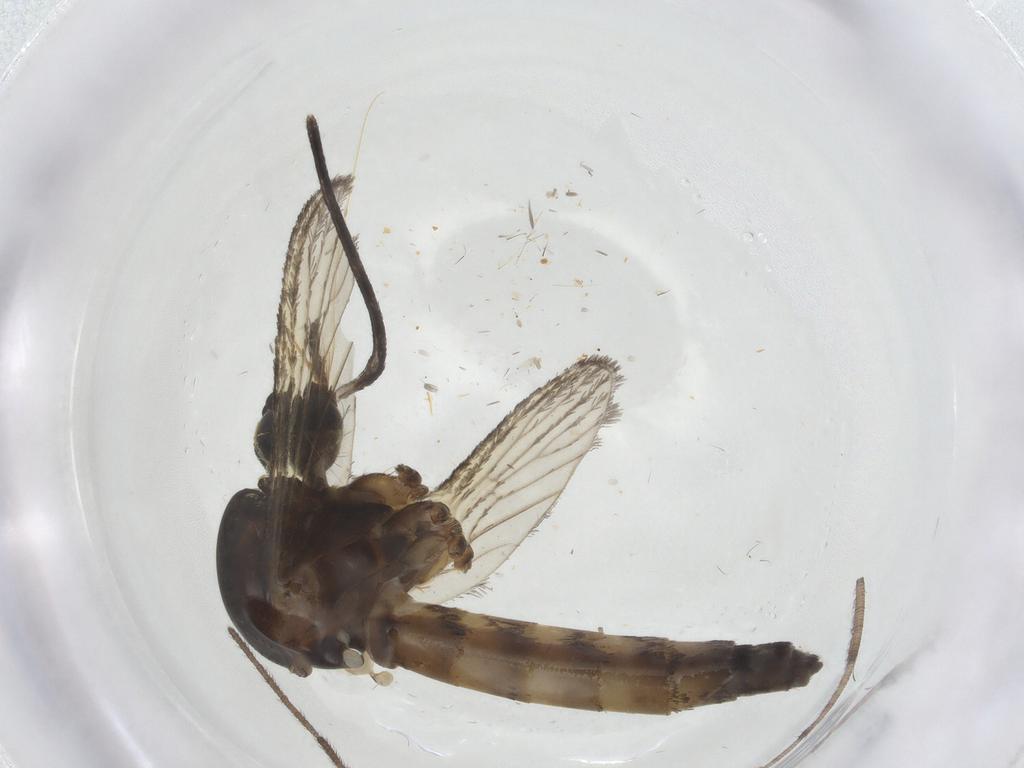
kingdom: Animalia
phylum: Arthropoda
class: Insecta
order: Diptera
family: Culicidae
